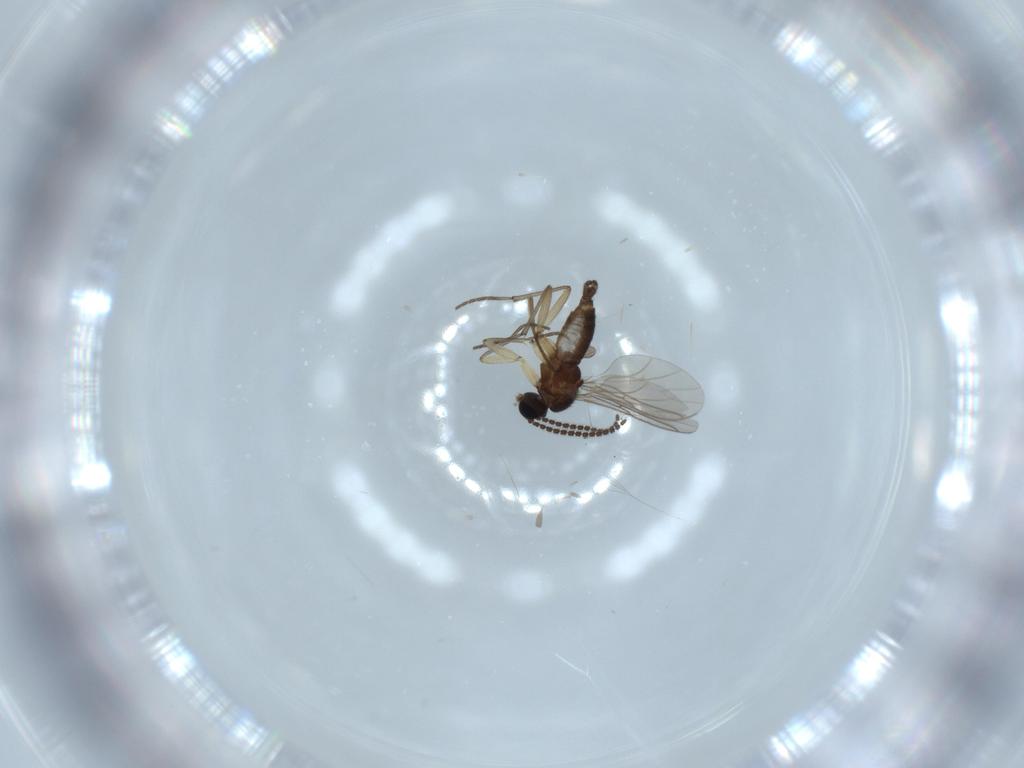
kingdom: Animalia
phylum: Arthropoda
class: Insecta
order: Diptera
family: Sciaridae
